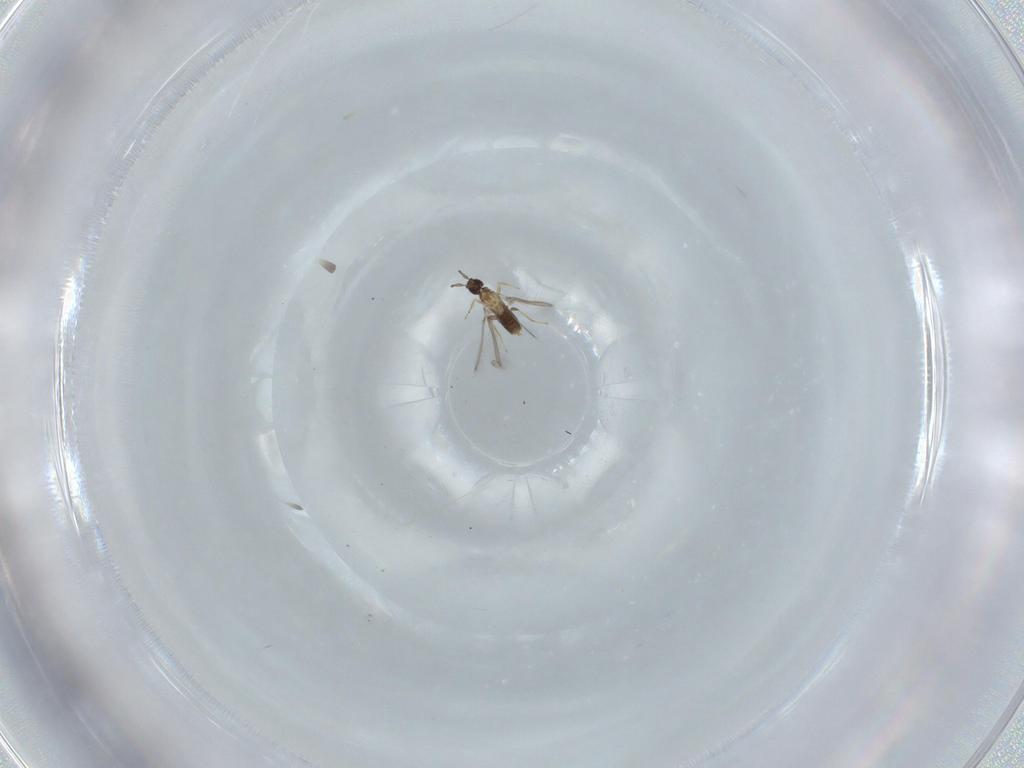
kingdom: Animalia
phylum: Arthropoda
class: Insecta
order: Hymenoptera
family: Mymaridae
